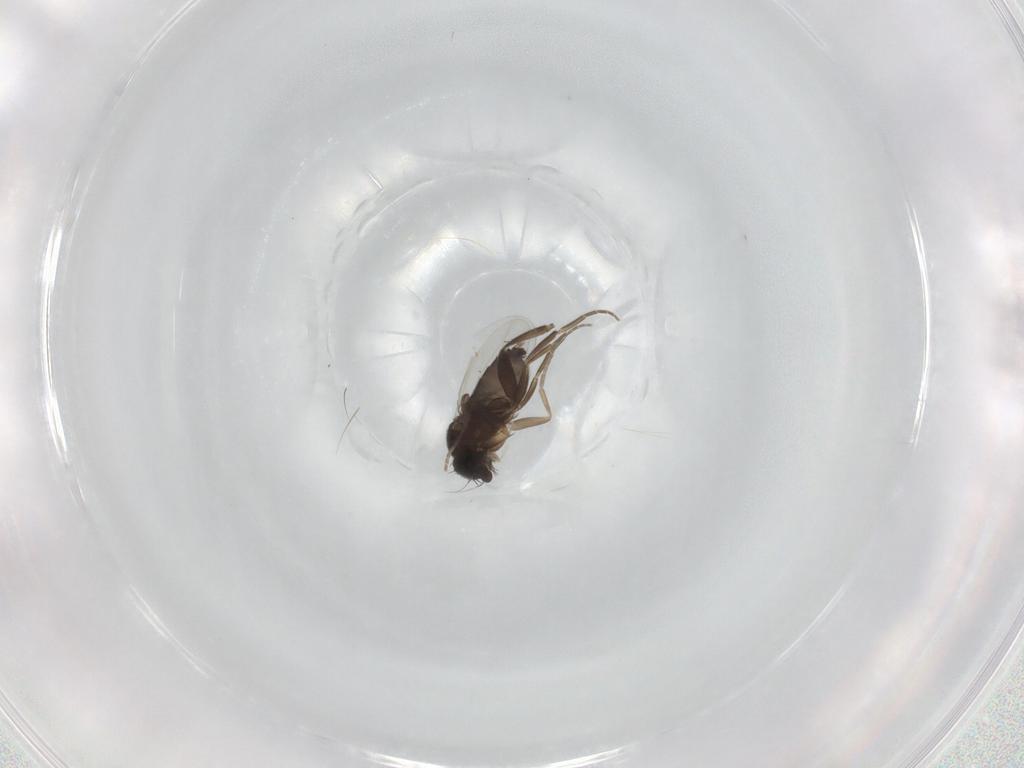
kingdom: Animalia
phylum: Arthropoda
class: Insecta
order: Diptera
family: Phoridae
